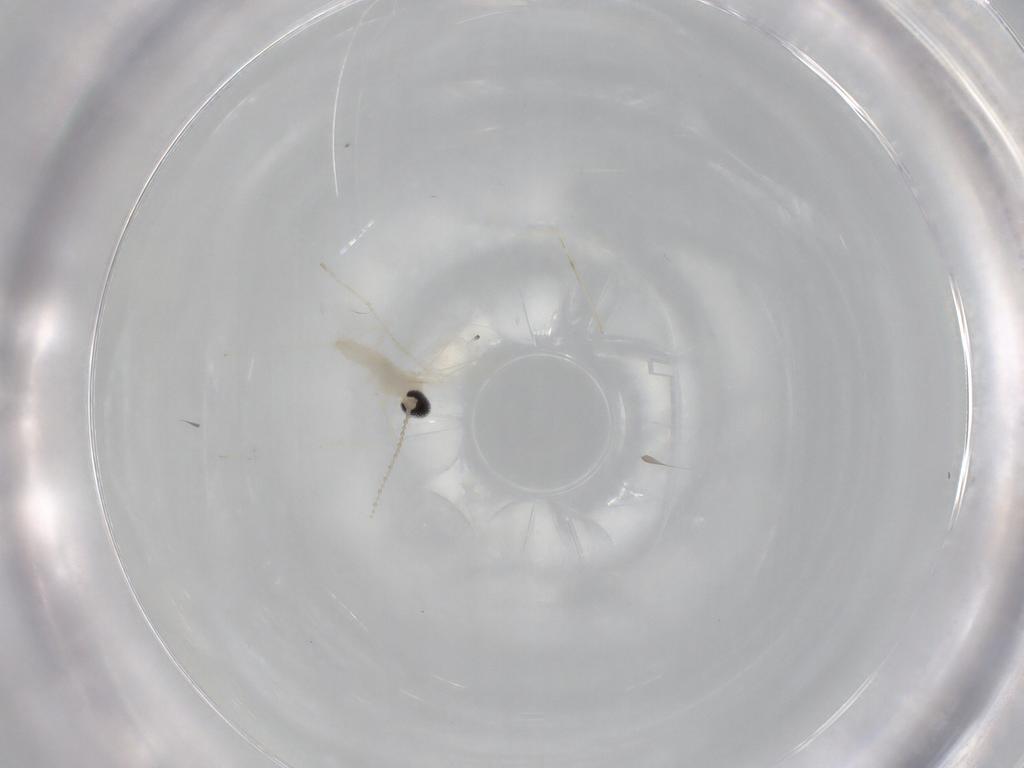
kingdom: Animalia
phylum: Arthropoda
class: Insecta
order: Diptera
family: Cecidomyiidae
